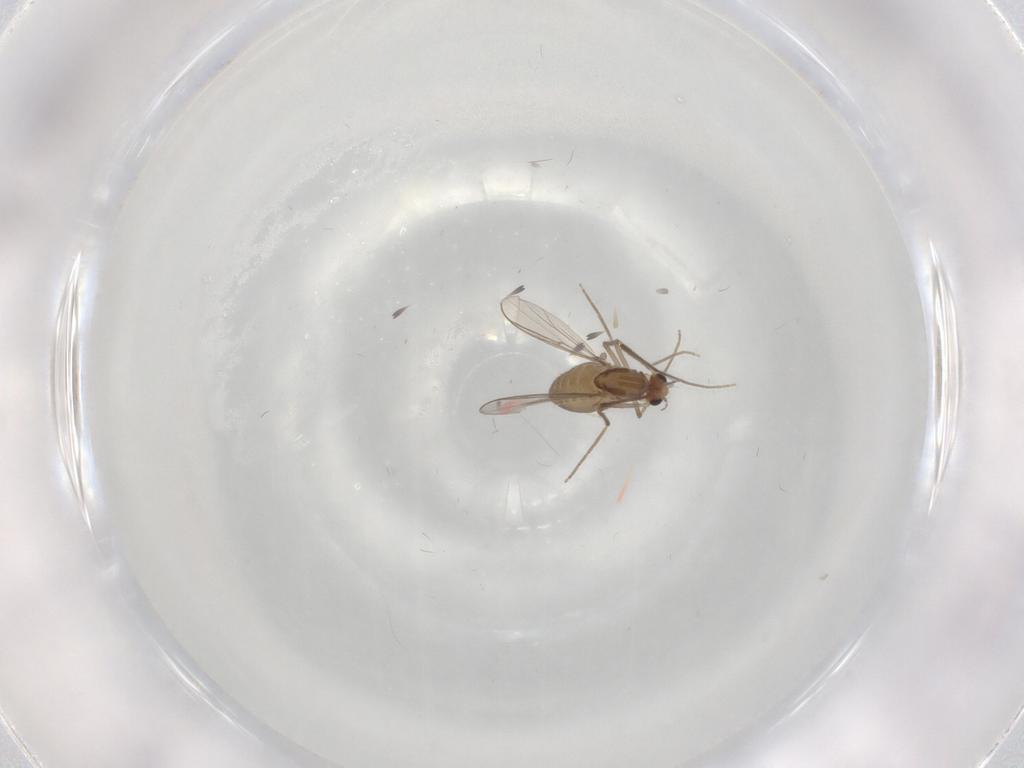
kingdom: Animalia
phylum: Arthropoda
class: Insecta
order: Diptera
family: Chironomidae
